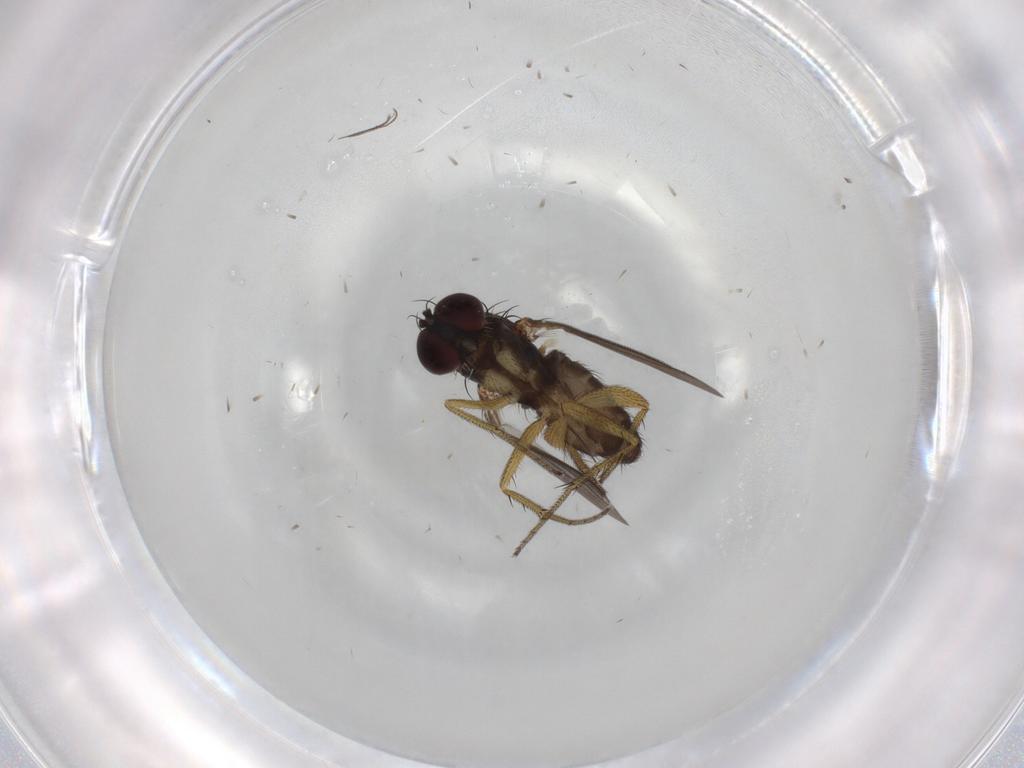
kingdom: Animalia
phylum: Arthropoda
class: Insecta
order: Diptera
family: Chironomidae
